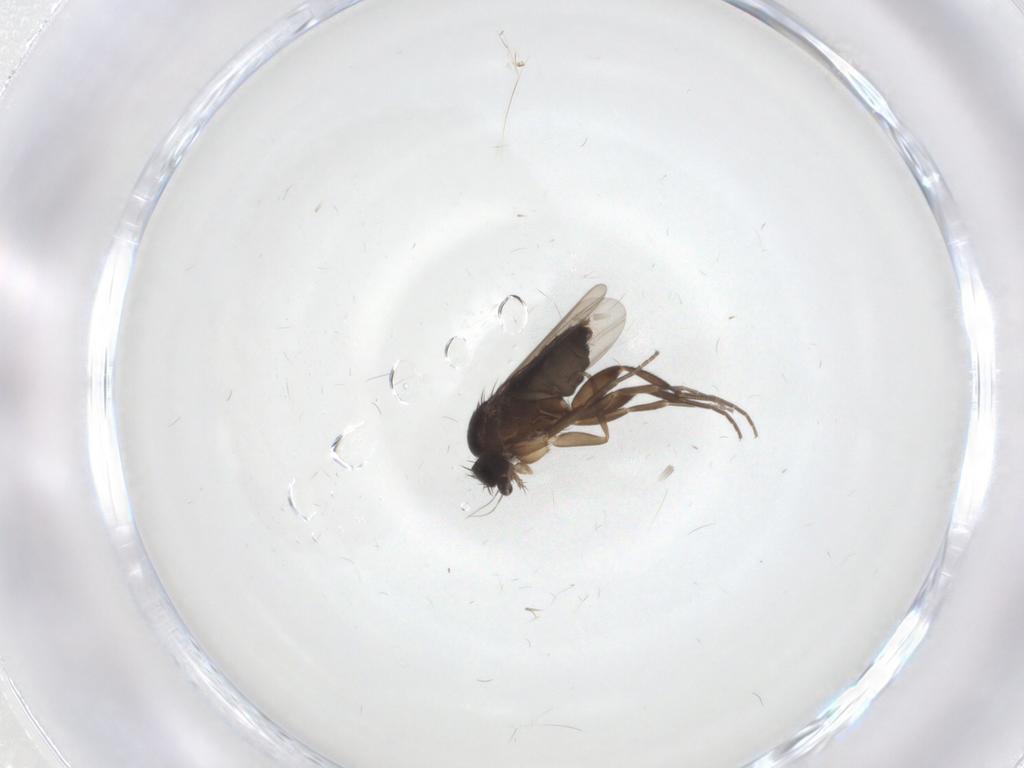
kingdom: Animalia
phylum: Arthropoda
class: Insecta
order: Diptera
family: Phoridae
